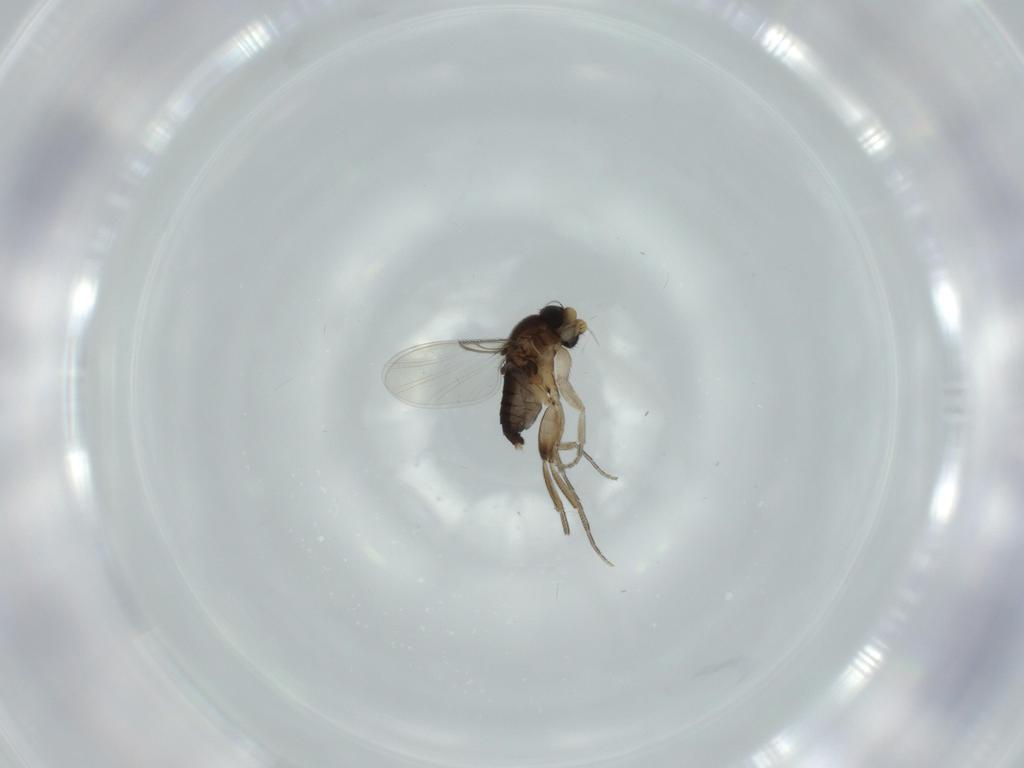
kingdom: Animalia
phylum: Arthropoda
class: Insecta
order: Diptera
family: Phoridae
